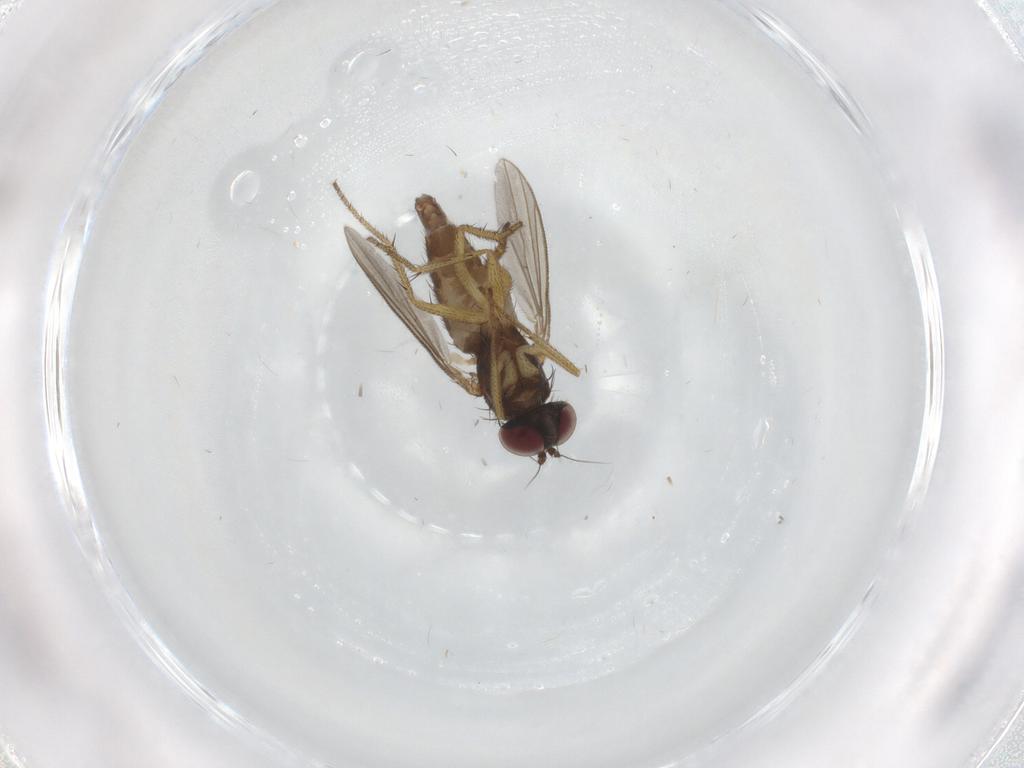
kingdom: Animalia
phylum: Arthropoda
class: Insecta
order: Diptera
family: Dolichopodidae
